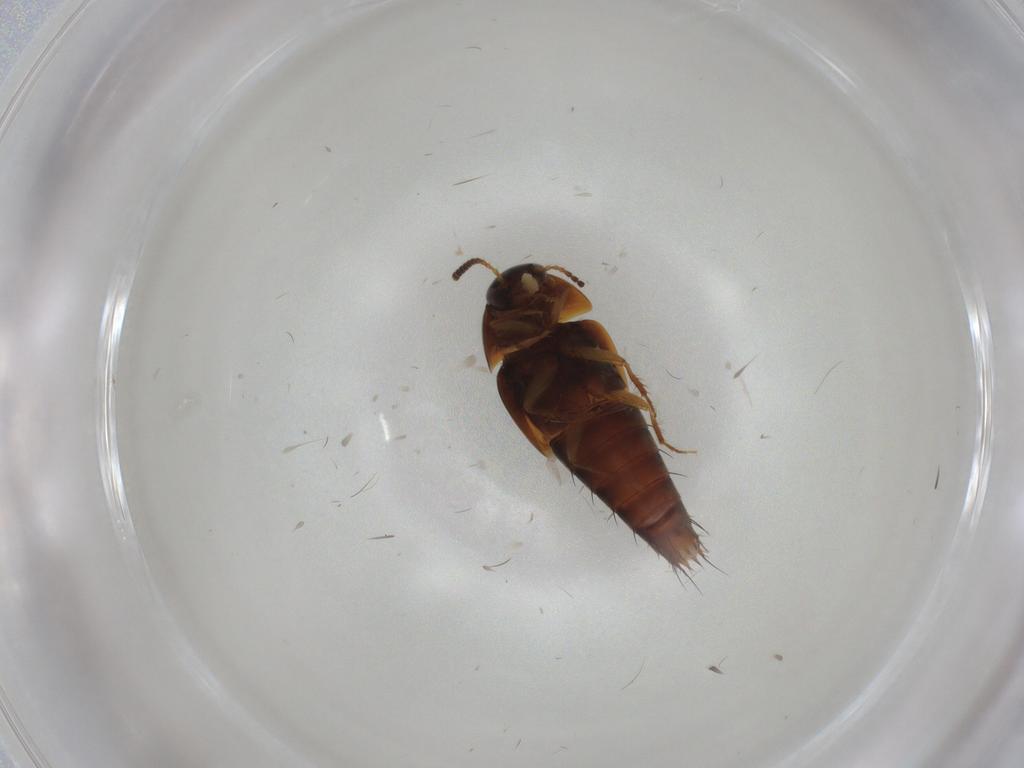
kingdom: Animalia
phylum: Arthropoda
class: Insecta
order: Coleoptera
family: Staphylinidae
